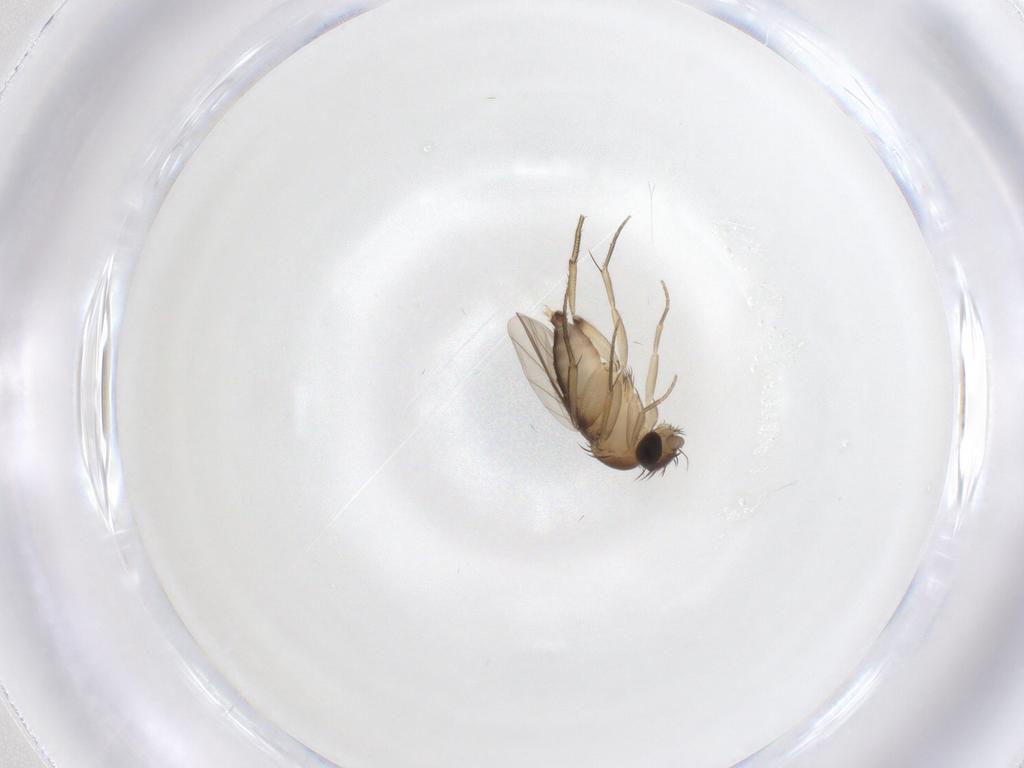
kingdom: Animalia
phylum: Arthropoda
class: Insecta
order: Diptera
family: Phoridae
